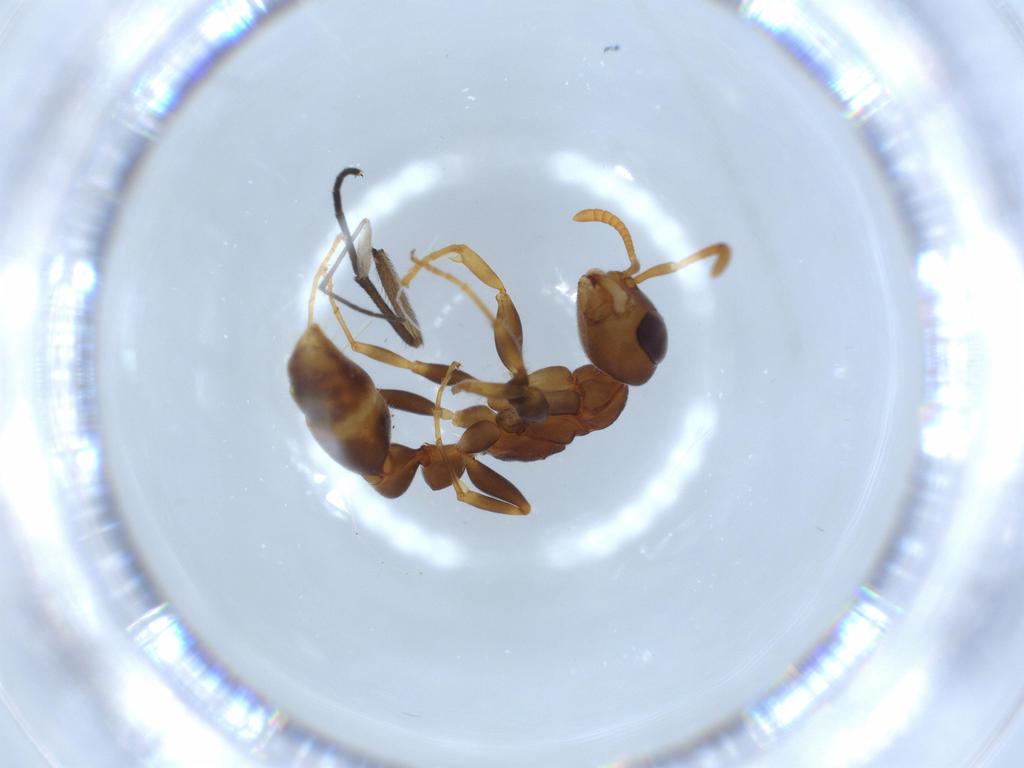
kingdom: Animalia
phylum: Arthropoda
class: Insecta
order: Hymenoptera
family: Formicidae
